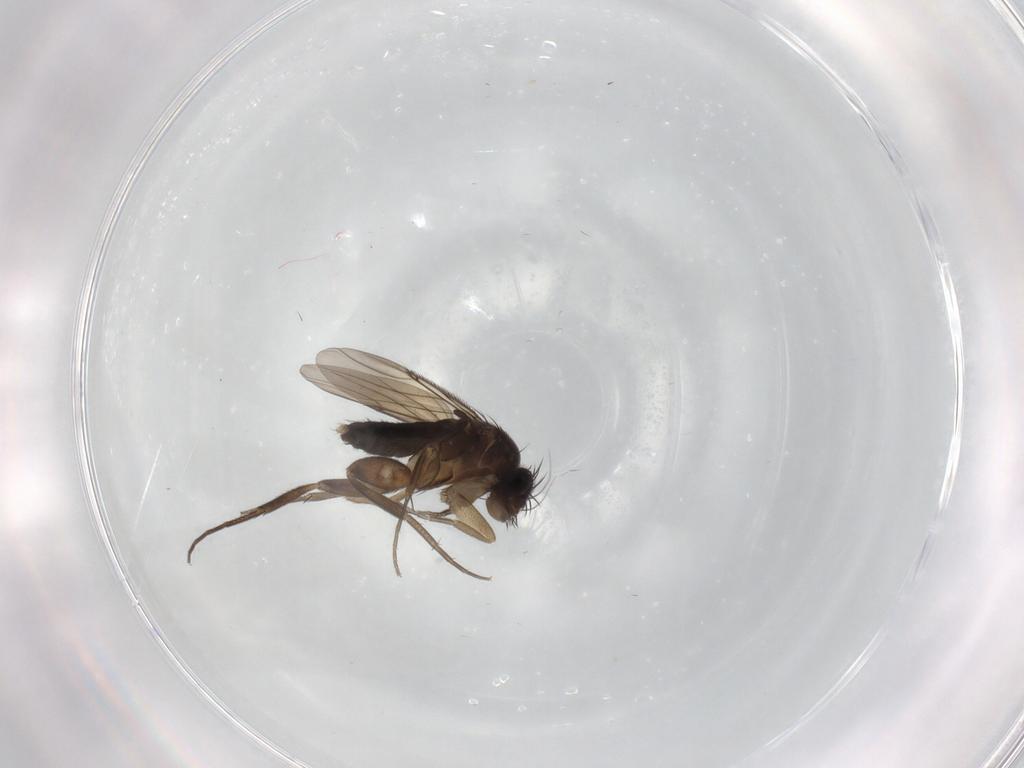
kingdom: Animalia
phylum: Arthropoda
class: Insecta
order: Diptera
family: Phoridae
